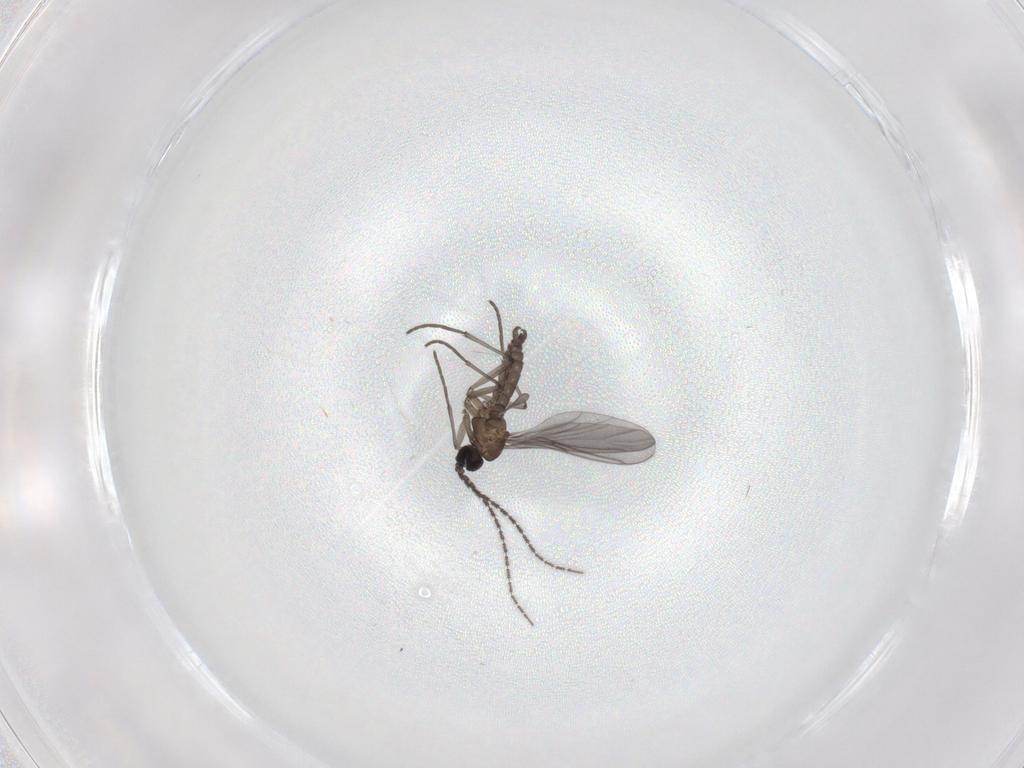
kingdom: Animalia
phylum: Arthropoda
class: Insecta
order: Diptera
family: Sciaridae
